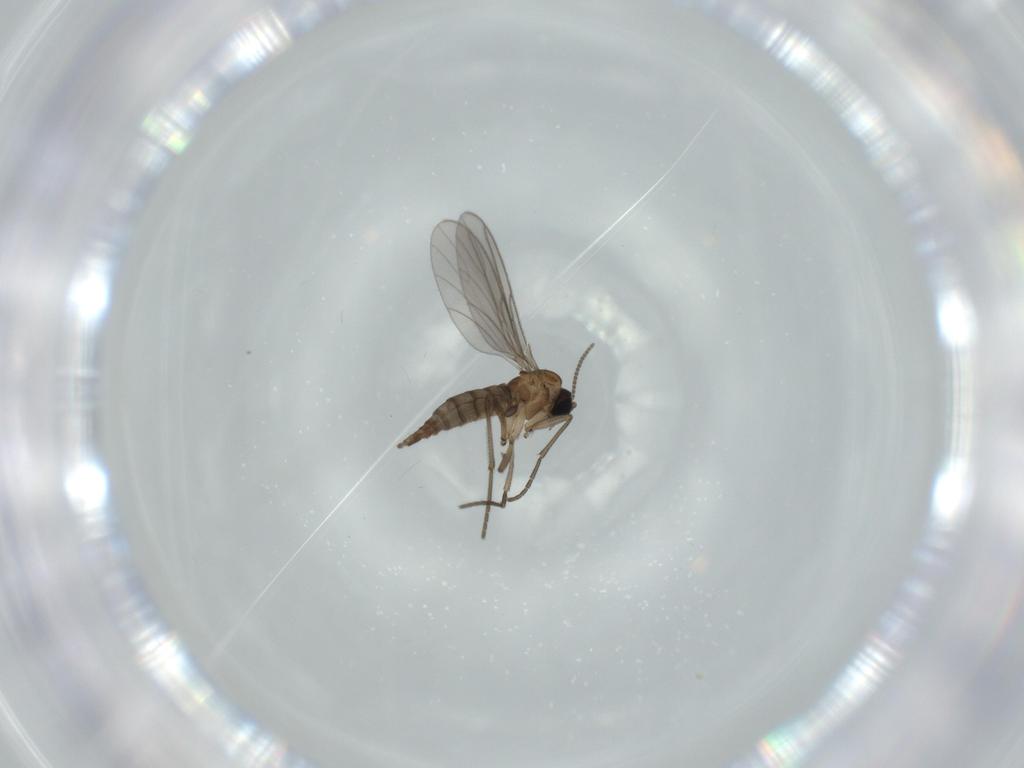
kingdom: Animalia
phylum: Arthropoda
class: Insecta
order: Diptera
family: Sciaridae
